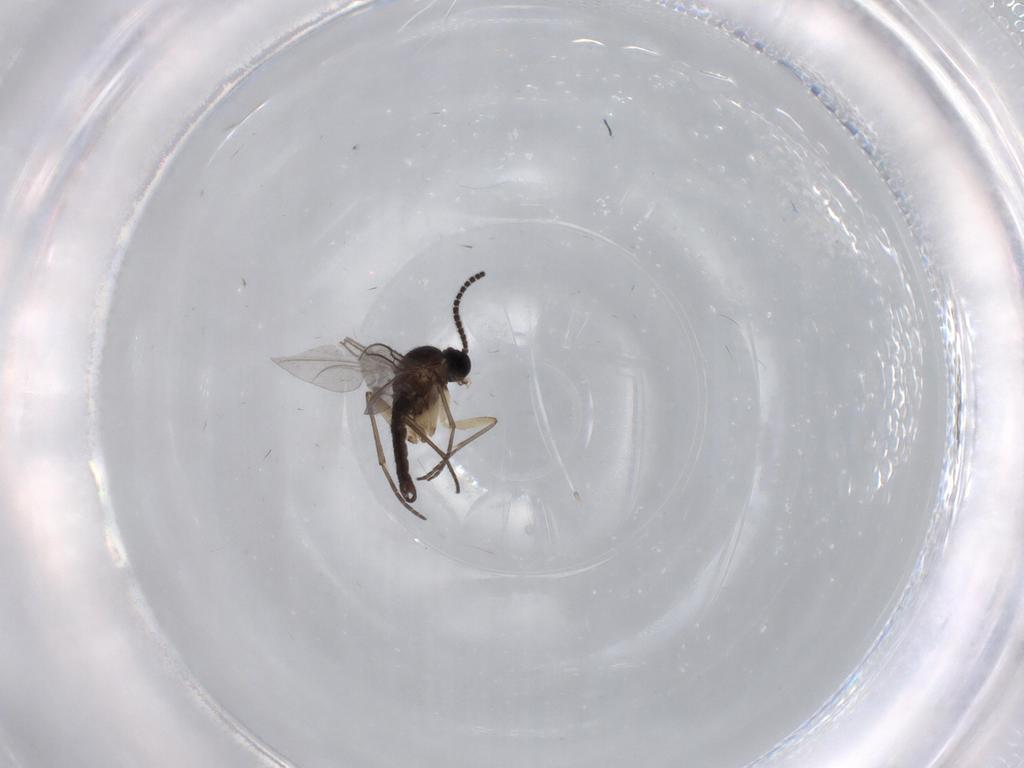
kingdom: Animalia
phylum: Arthropoda
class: Insecta
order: Diptera
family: Sciaridae
